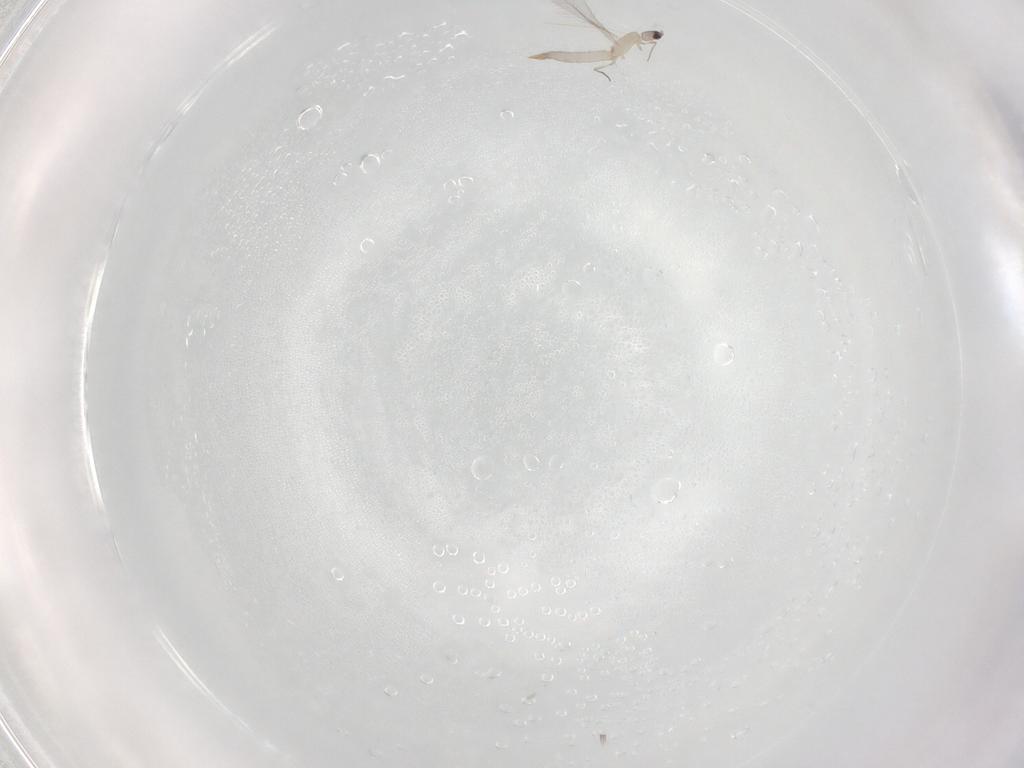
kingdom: Animalia
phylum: Arthropoda
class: Insecta
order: Diptera
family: Cecidomyiidae
